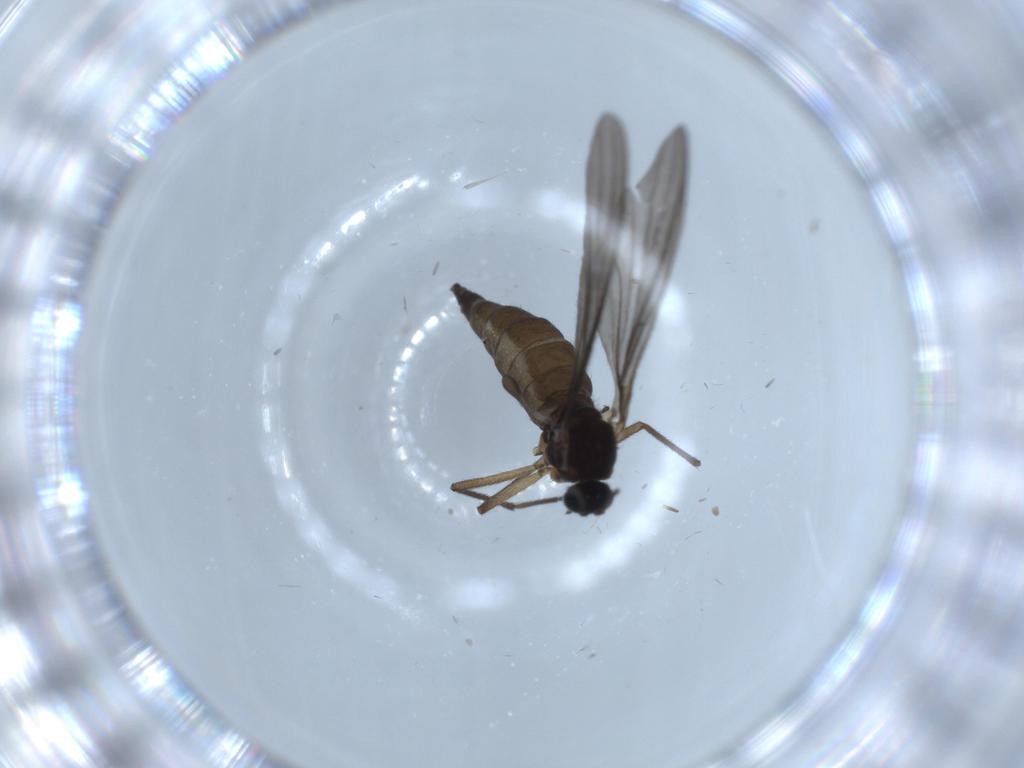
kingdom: Animalia
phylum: Arthropoda
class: Insecta
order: Diptera
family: Sciaridae
